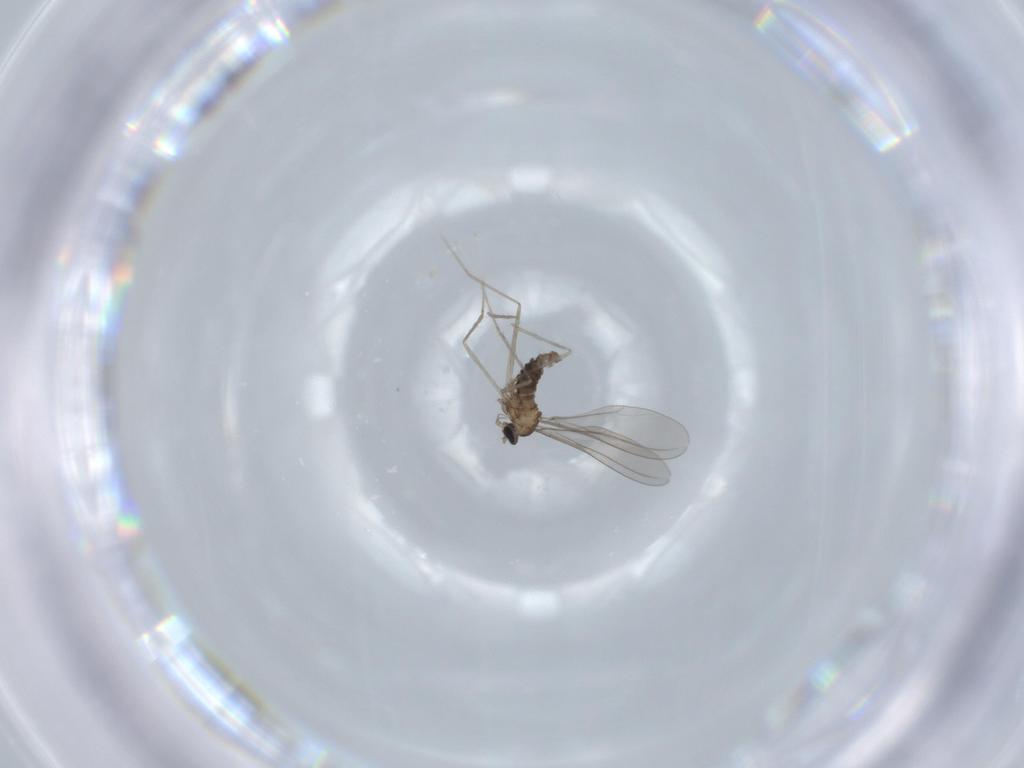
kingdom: Animalia
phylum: Arthropoda
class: Insecta
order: Diptera
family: Cecidomyiidae
